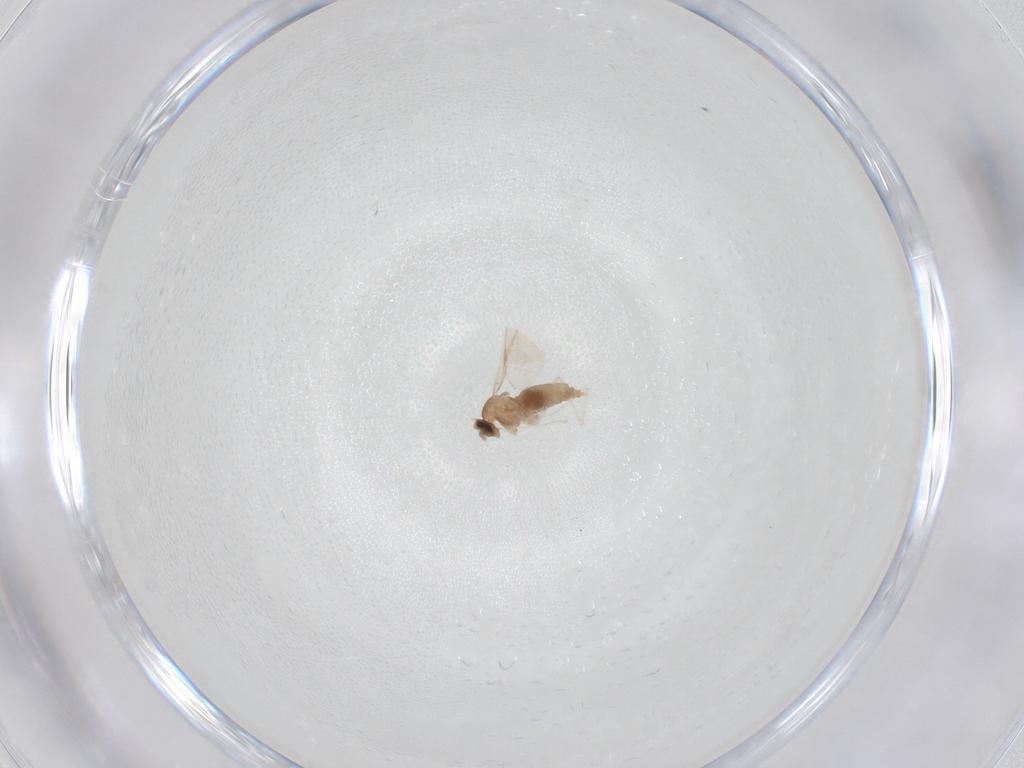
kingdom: Animalia
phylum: Arthropoda
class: Insecta
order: Diptera
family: Cecidomyiidae
